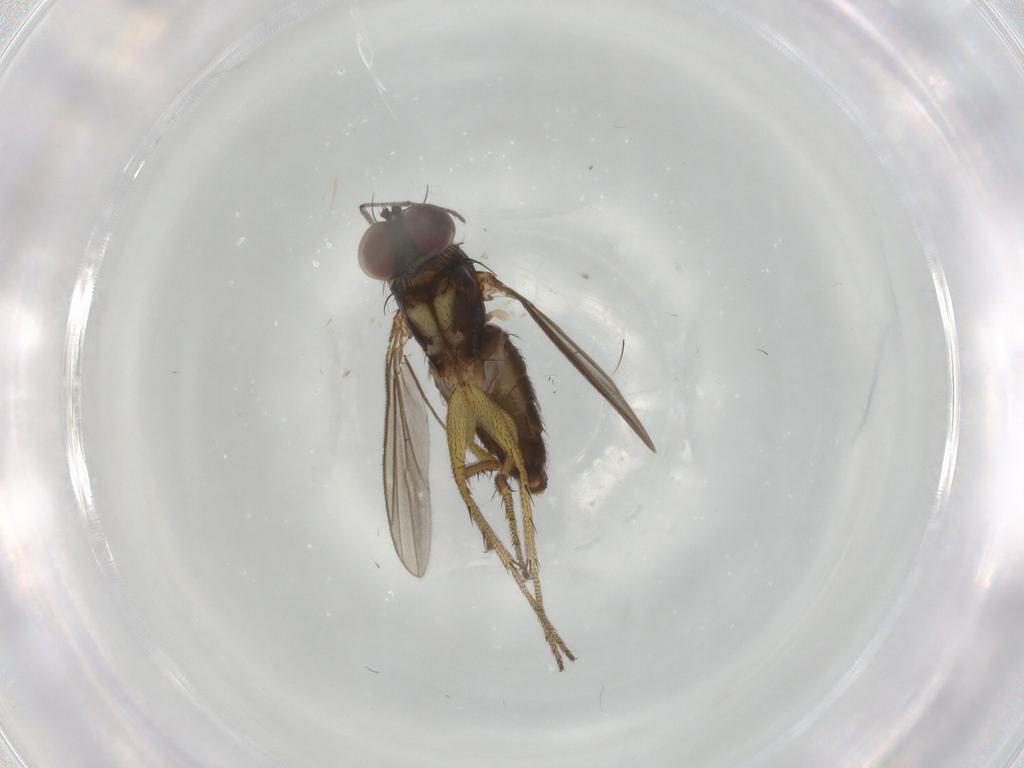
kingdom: Animalia
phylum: Arthropoda
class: Insecta
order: Diptera
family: Sciaridae
